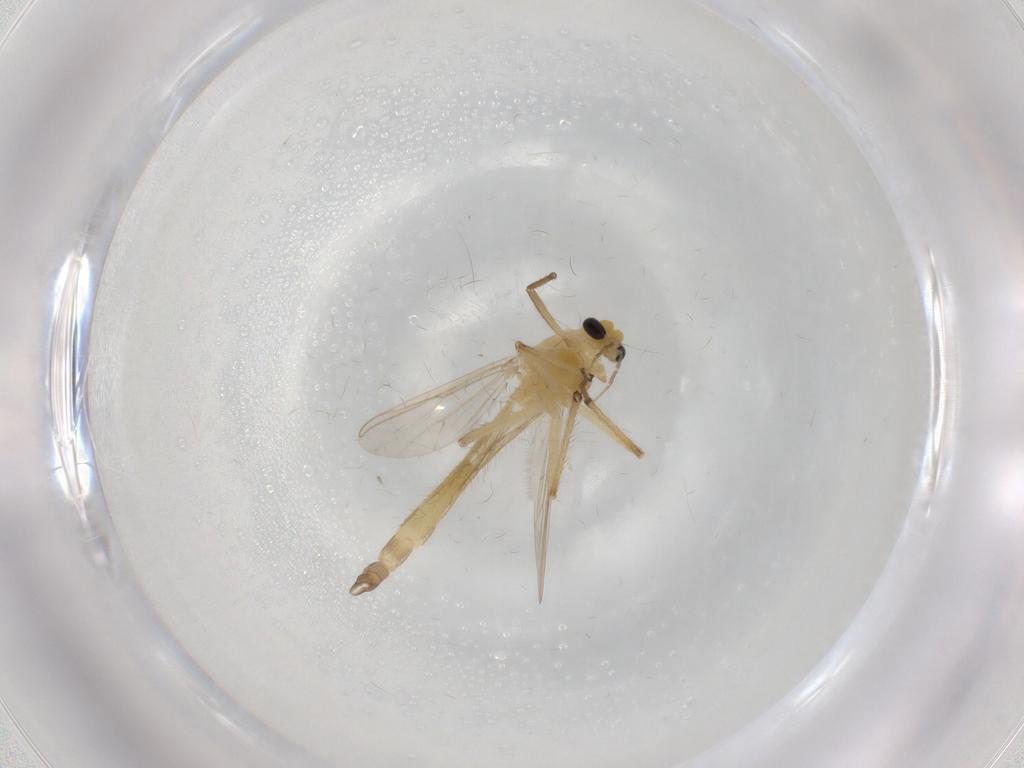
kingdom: Animalia
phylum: Arthropoda
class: Insecta
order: Diptera
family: Chironomidae
